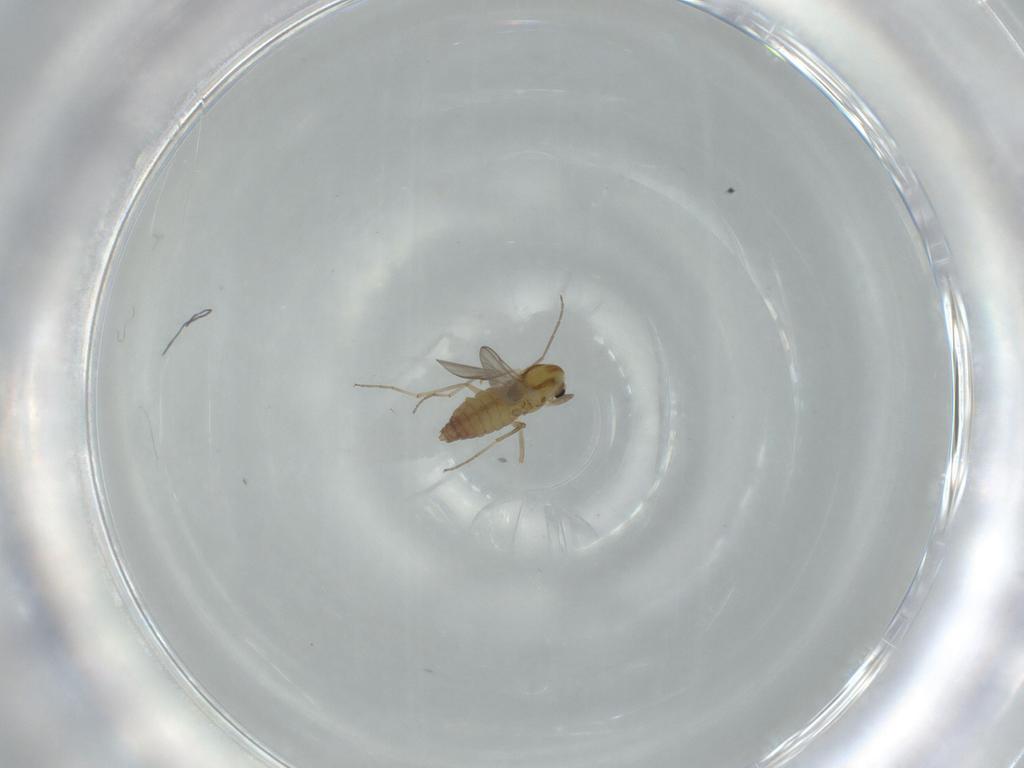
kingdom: Animalia
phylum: Arthropoda
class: Insecta
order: Diptera
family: Chironomidae
